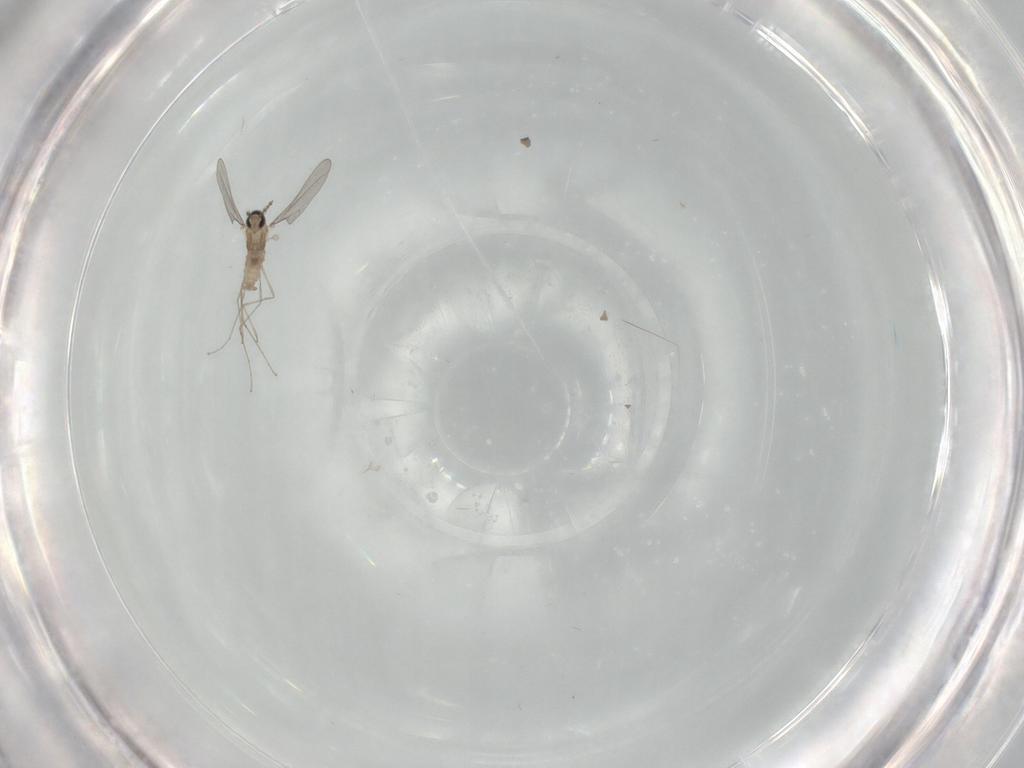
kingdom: Animalia
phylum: Arthropoda
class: Insecta
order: Diptera
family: Cecidomyiidae
